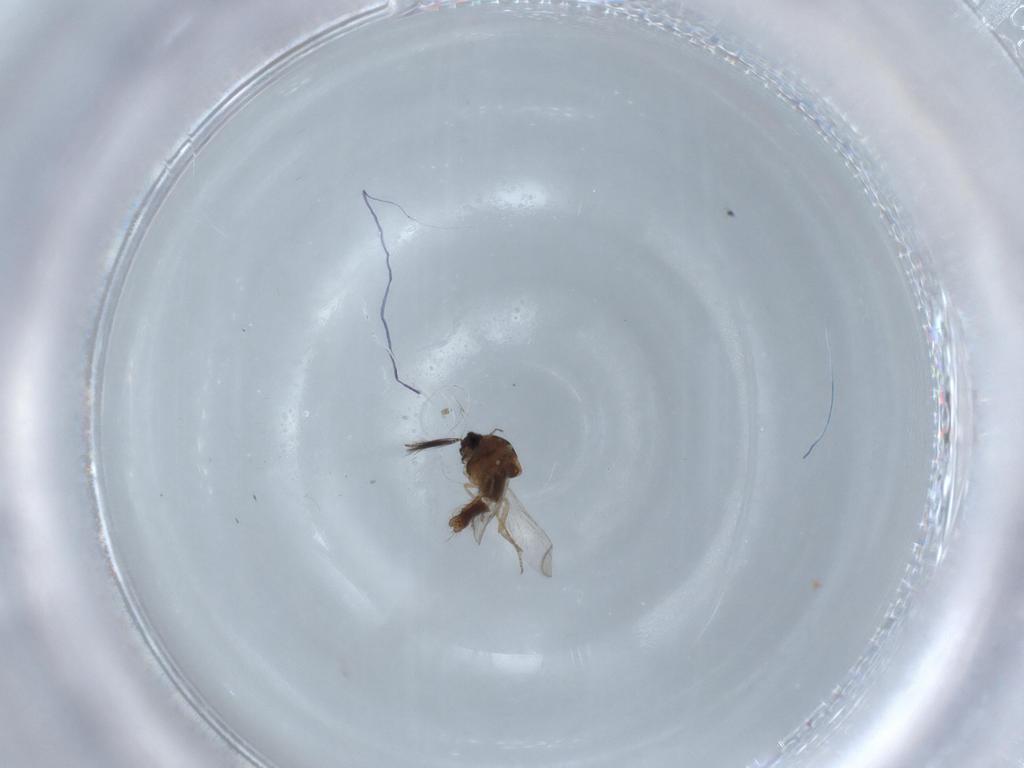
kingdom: Animalia
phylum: Arthropoda
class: Insecta
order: Diptera
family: Ceratopogonidae
